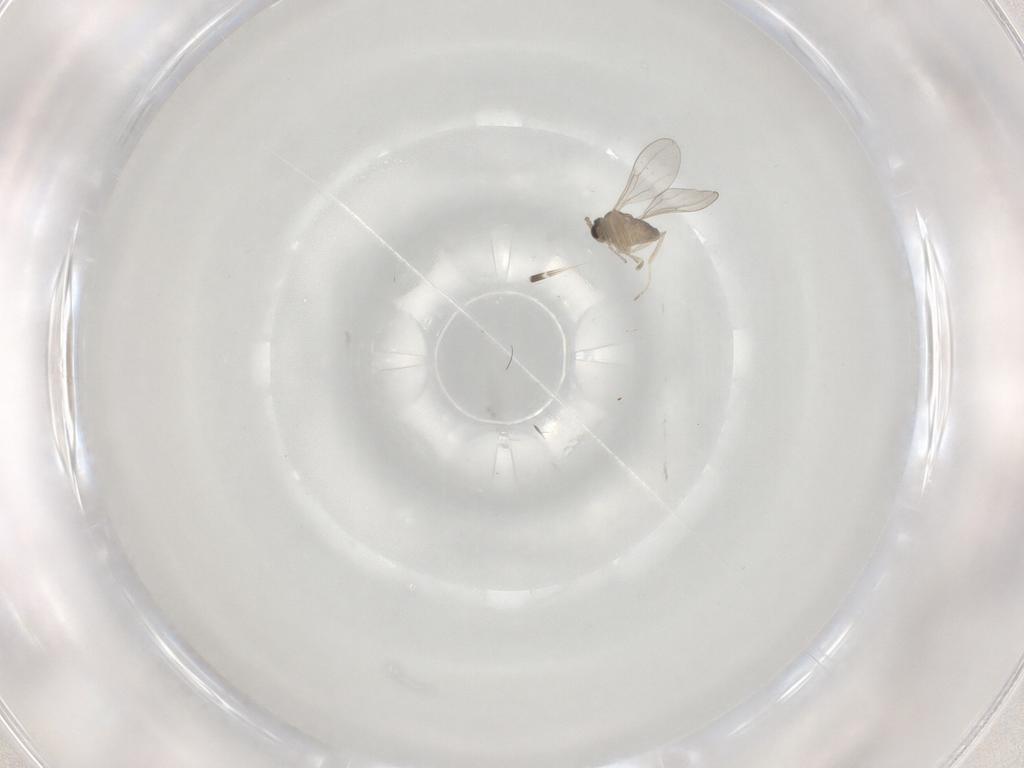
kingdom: Animalia
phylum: Arthropoda
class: Insecta
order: Diptera
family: Cecidomyiidae
